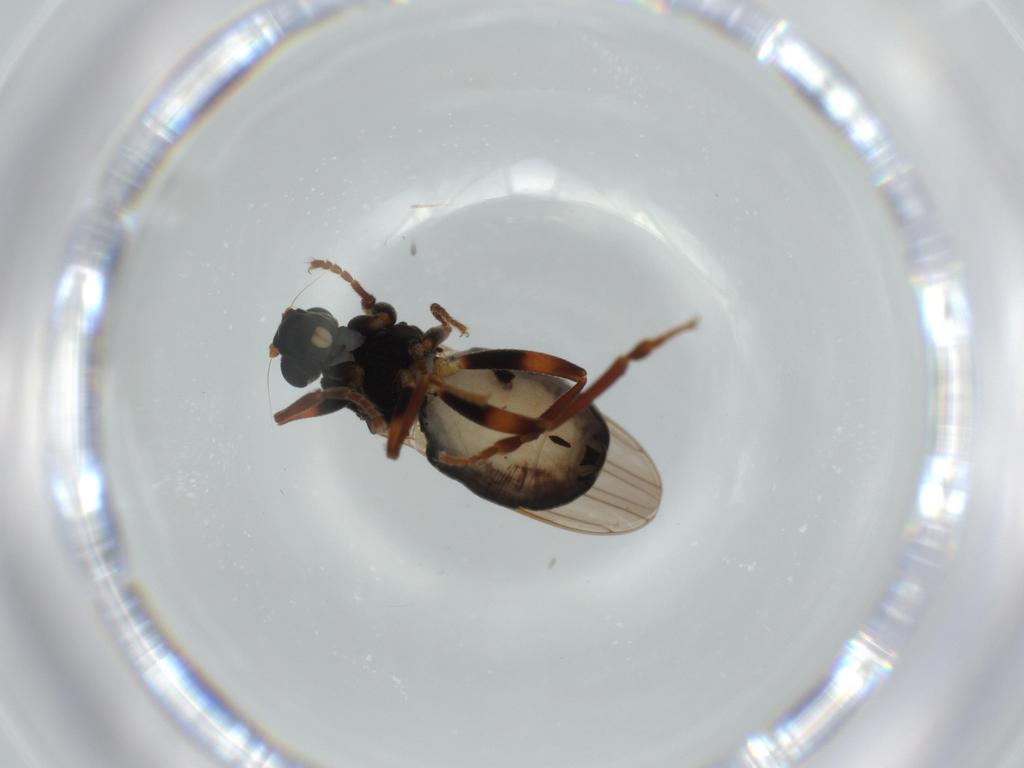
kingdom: Animalia
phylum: Arthropoda
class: Insecta
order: Diptera
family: Sphaeroceridae
